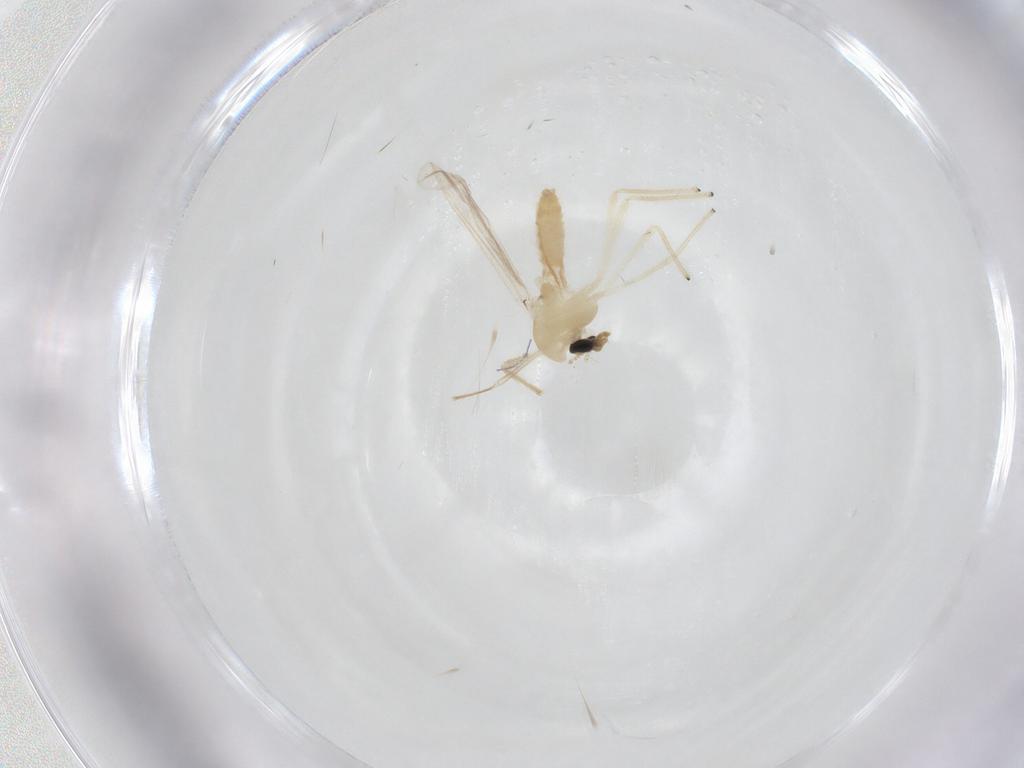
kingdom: Animalia
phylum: Arthropoda
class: Insecta
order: Diptera
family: Chironomidae
